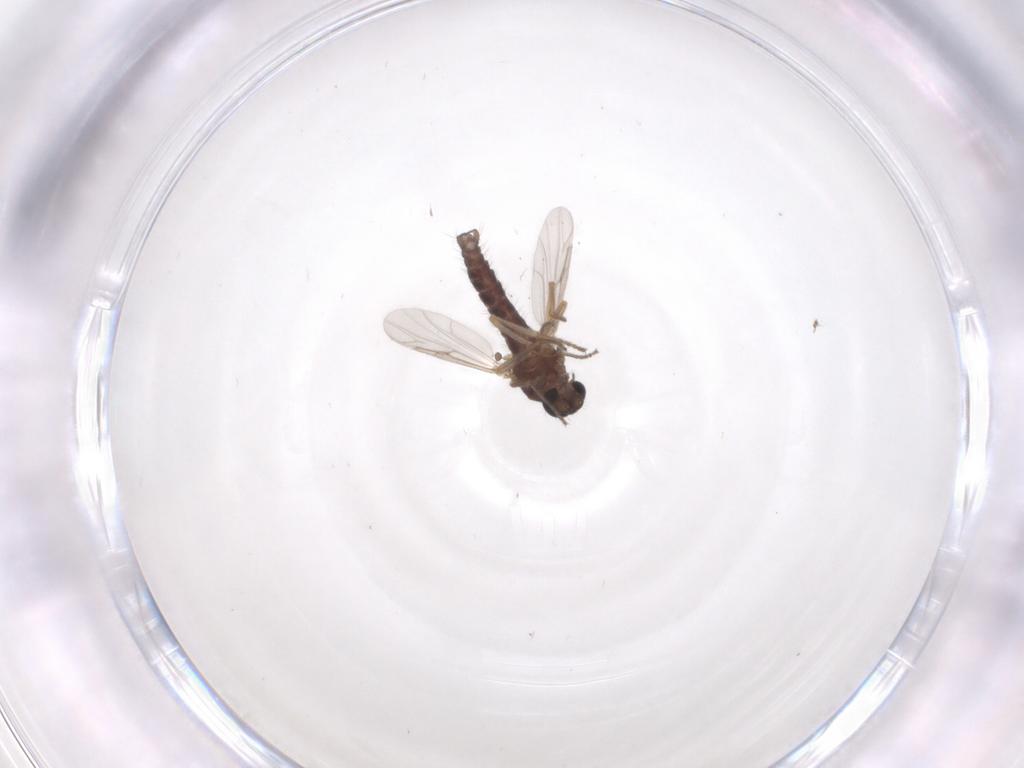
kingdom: Animalia
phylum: Arthropoda
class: Insecta
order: Diptera
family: Ceratopogonidae
